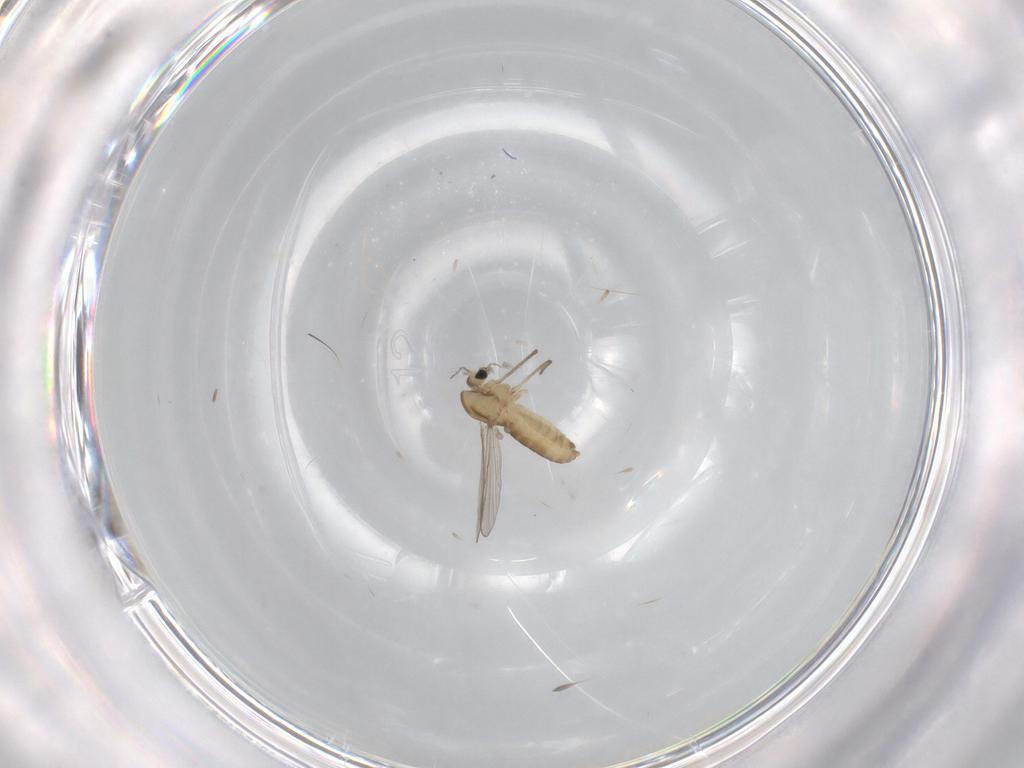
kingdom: Animalia
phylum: Arthropoda
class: Insecta
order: Diptera
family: Chironomidae
